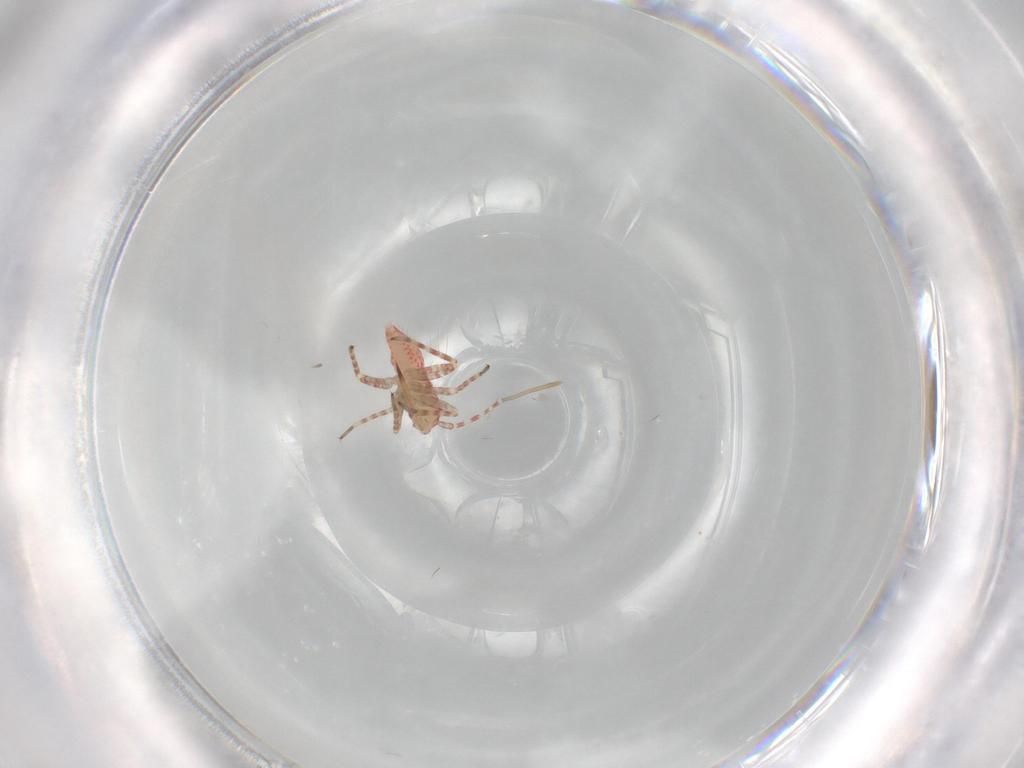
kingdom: Animalia
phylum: Arthropoda
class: Insecta
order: Hemiptera
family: Miridae
